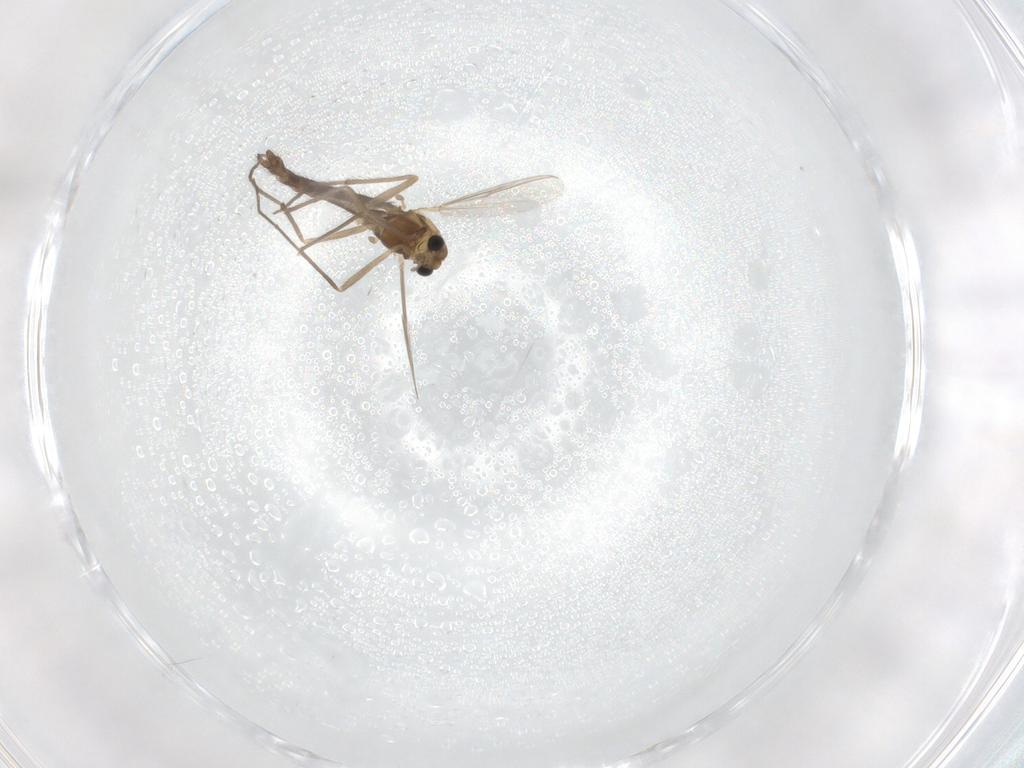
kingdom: Animalia
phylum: Arthropoda
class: Insecta
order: Diptera
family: Chironomidae
